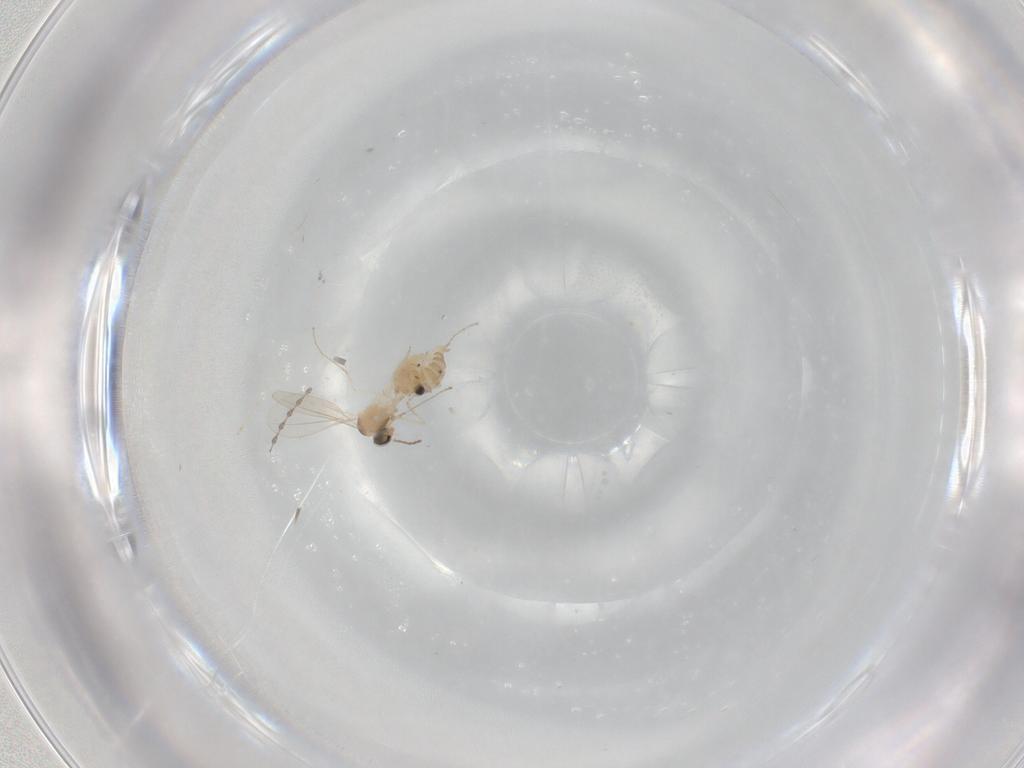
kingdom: Animalia
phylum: Arthropoda
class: Insecta
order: Diptera
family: Cecidomyiidae
